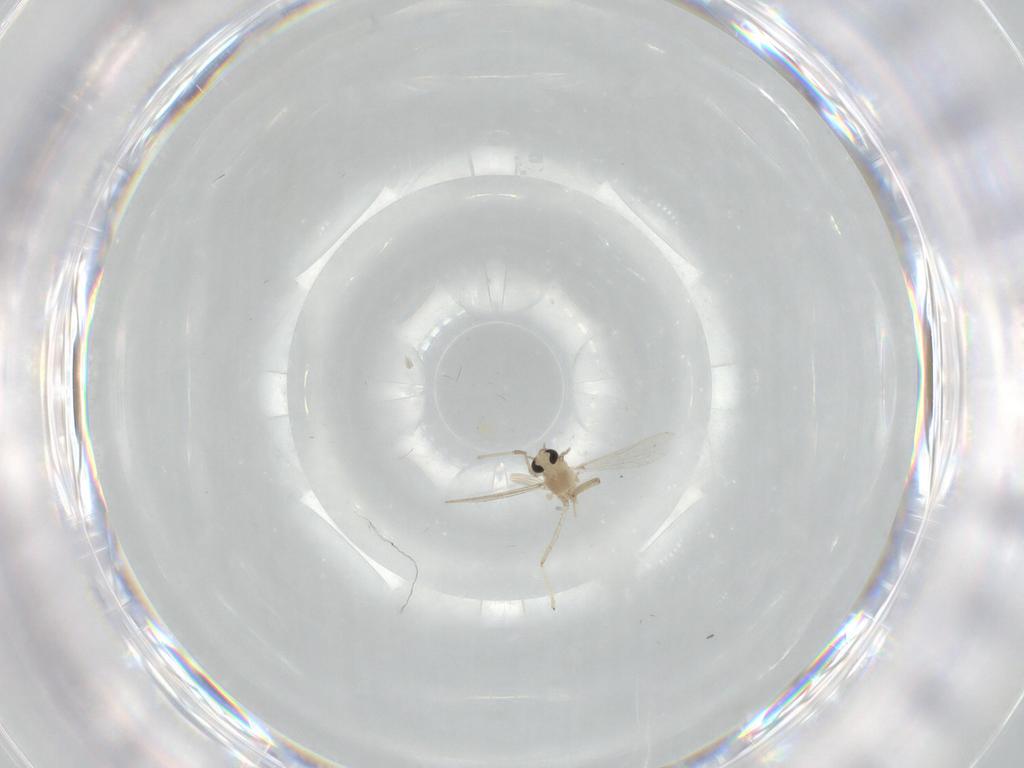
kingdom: Animalia
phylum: Arthropoda
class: Insecta
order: Diptera
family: Chironomidae
